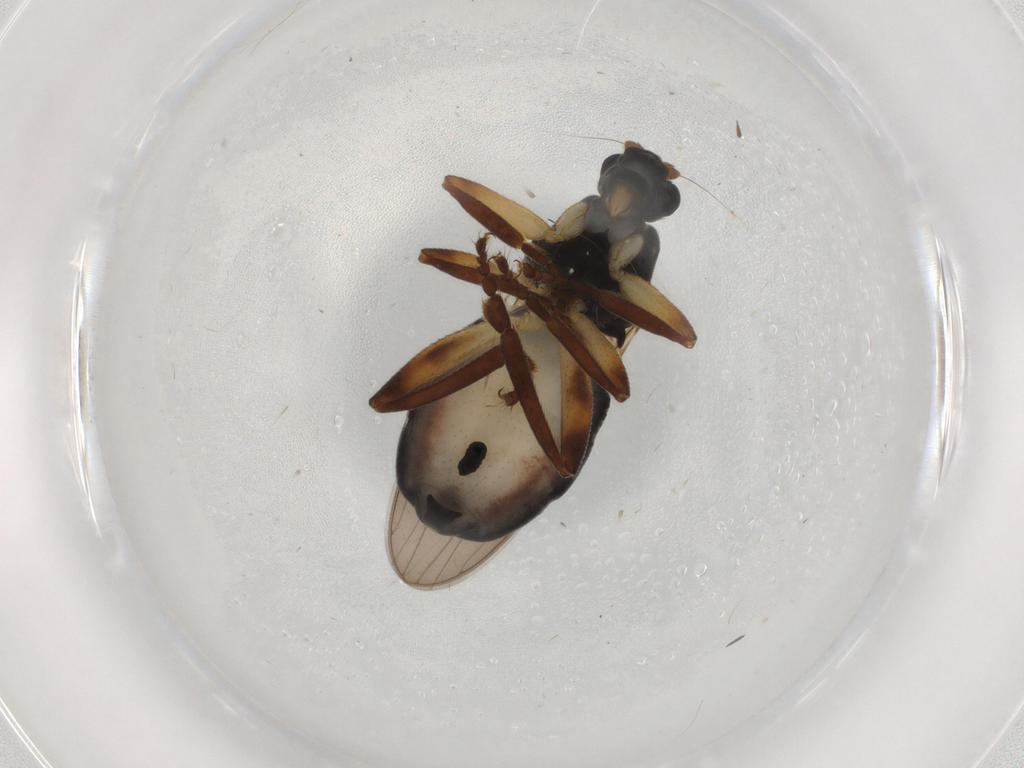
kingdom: Animalia
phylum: Arthropoda
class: Insecta
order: Diptera
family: Sphaeroceridae
